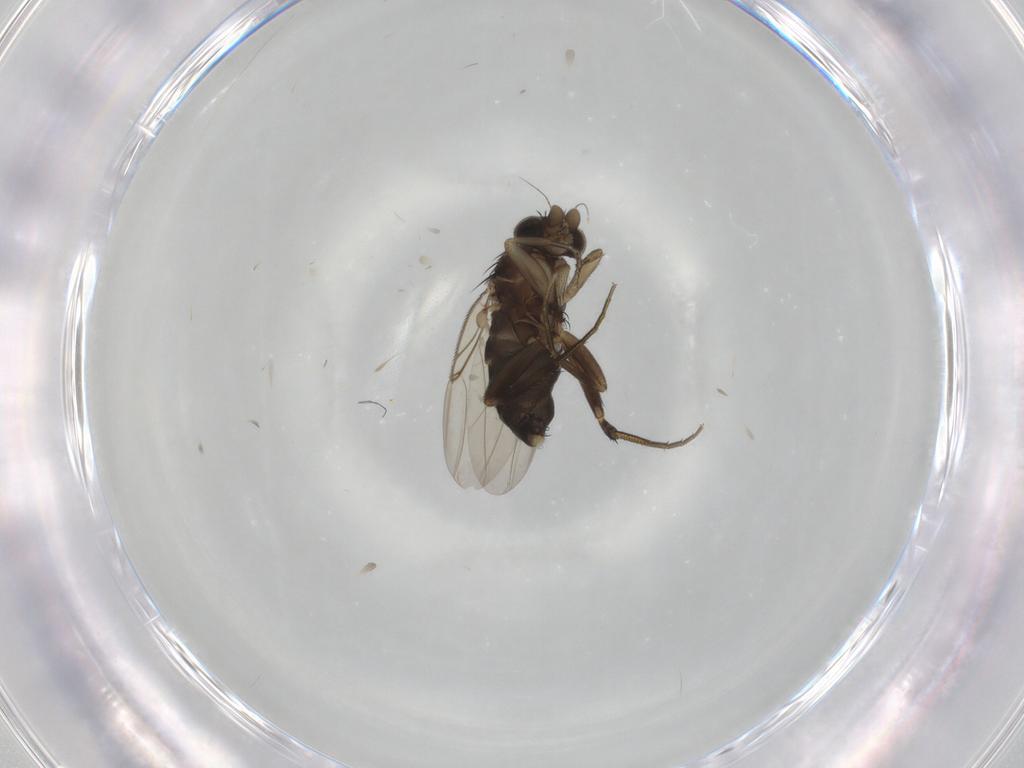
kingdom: Animalia
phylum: Arthropoda
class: Insecta
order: Diptera
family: Phoridae
